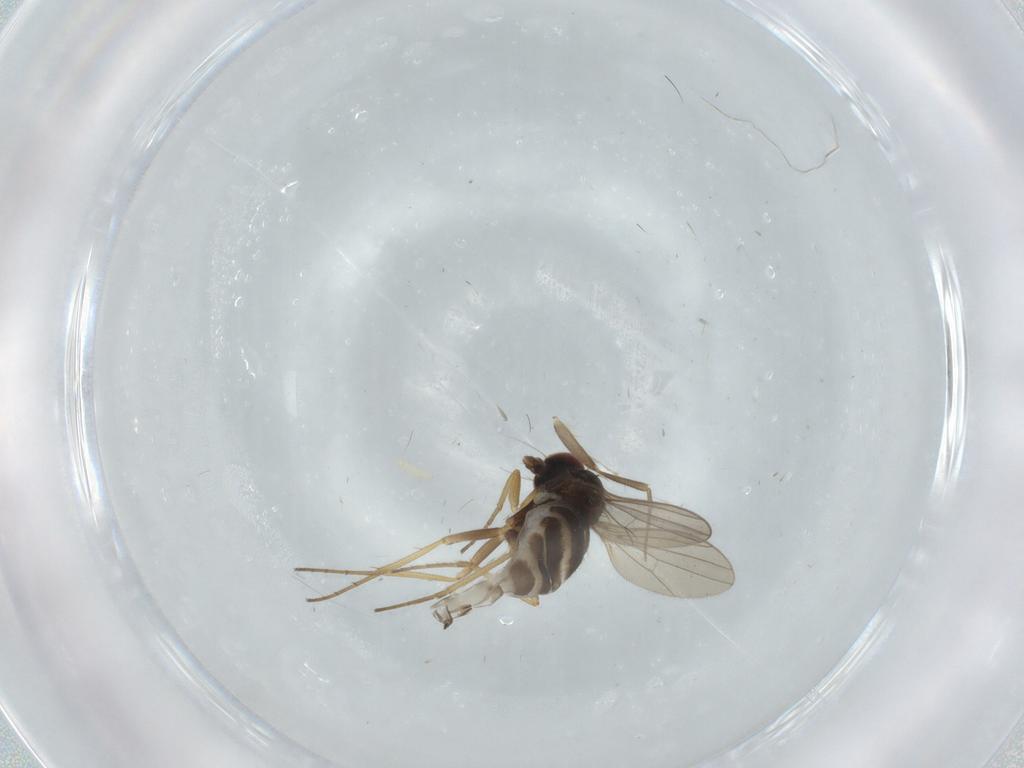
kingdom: Animalia
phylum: Arthropoda
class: Insecta
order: Diptera
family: Psychodidae
